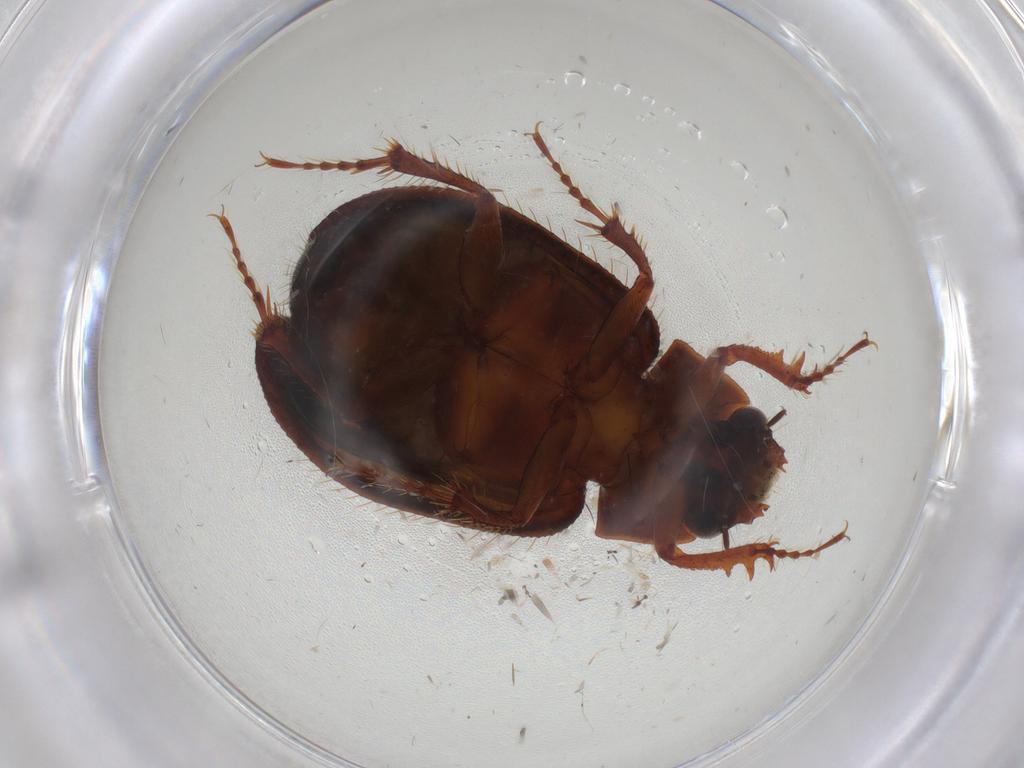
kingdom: Animalia
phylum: Arthropoda
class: Insecta
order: Coleoptera
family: Hybosoridae
